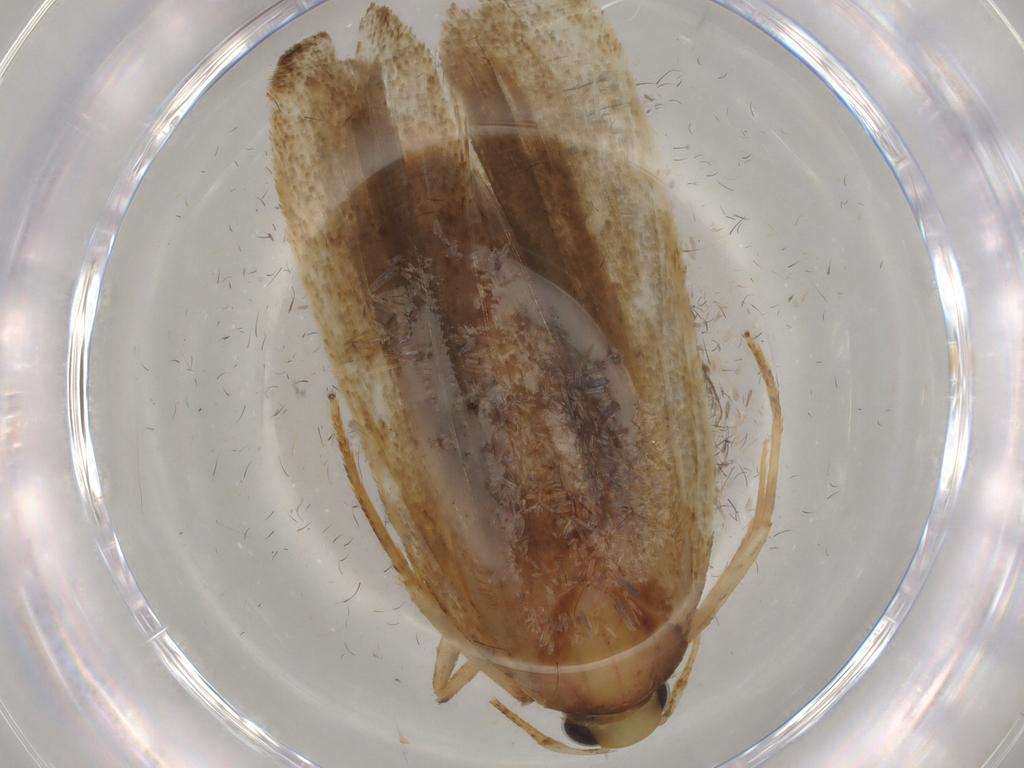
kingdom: Animalia
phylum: Arthropoda
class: Insecta
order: Lepidoptera
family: Autostichidae
